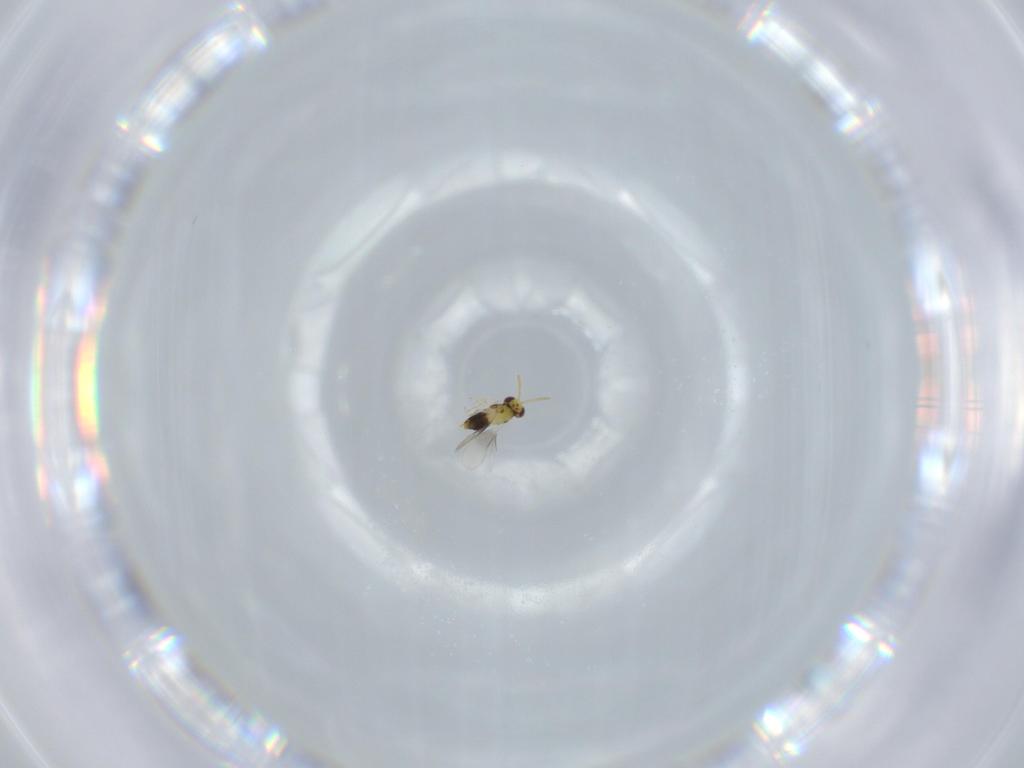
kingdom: Animalia
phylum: Arthropoda
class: Insecta
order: Hymenoptera
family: Aphelinidae
